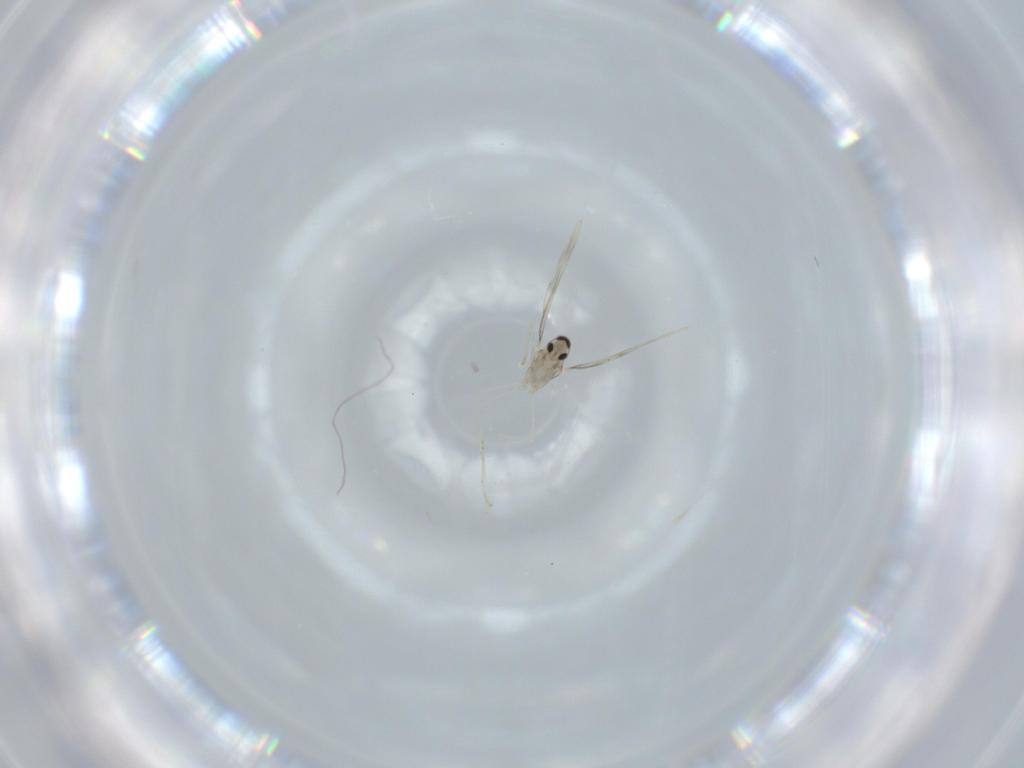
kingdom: Animalia
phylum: Arthropoda
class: Insecta
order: Diptera
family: Cecidomyiidae
